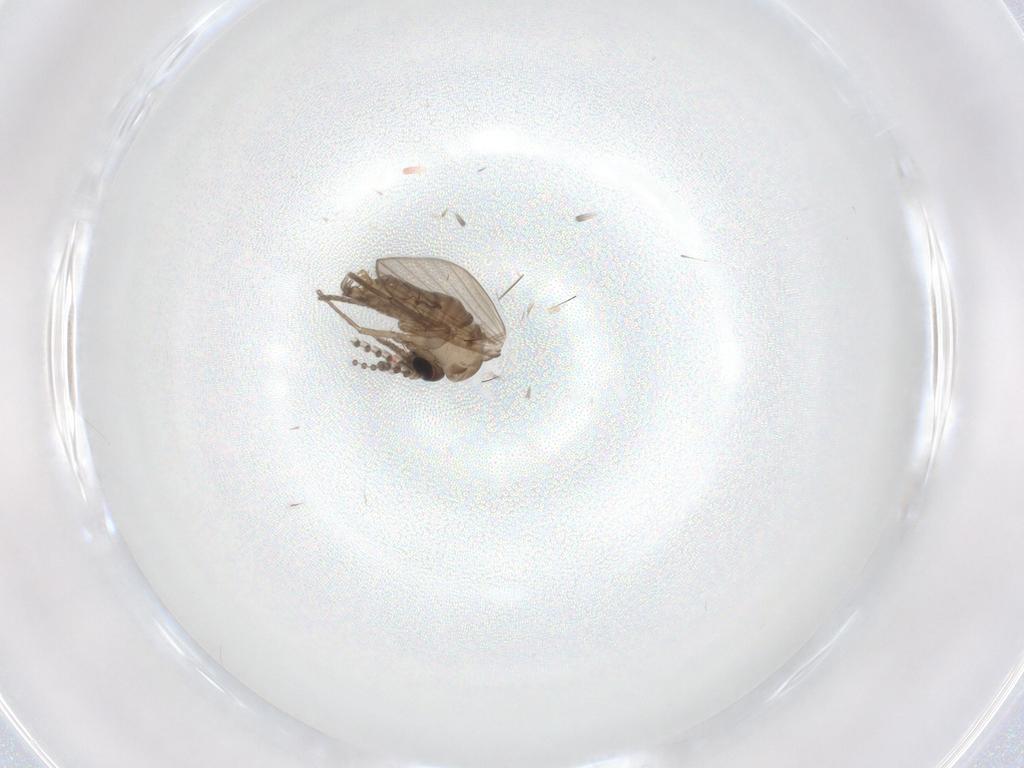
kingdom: Animalia
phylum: Arthropoda
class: Insecta
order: Diptera
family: Psychodidae
